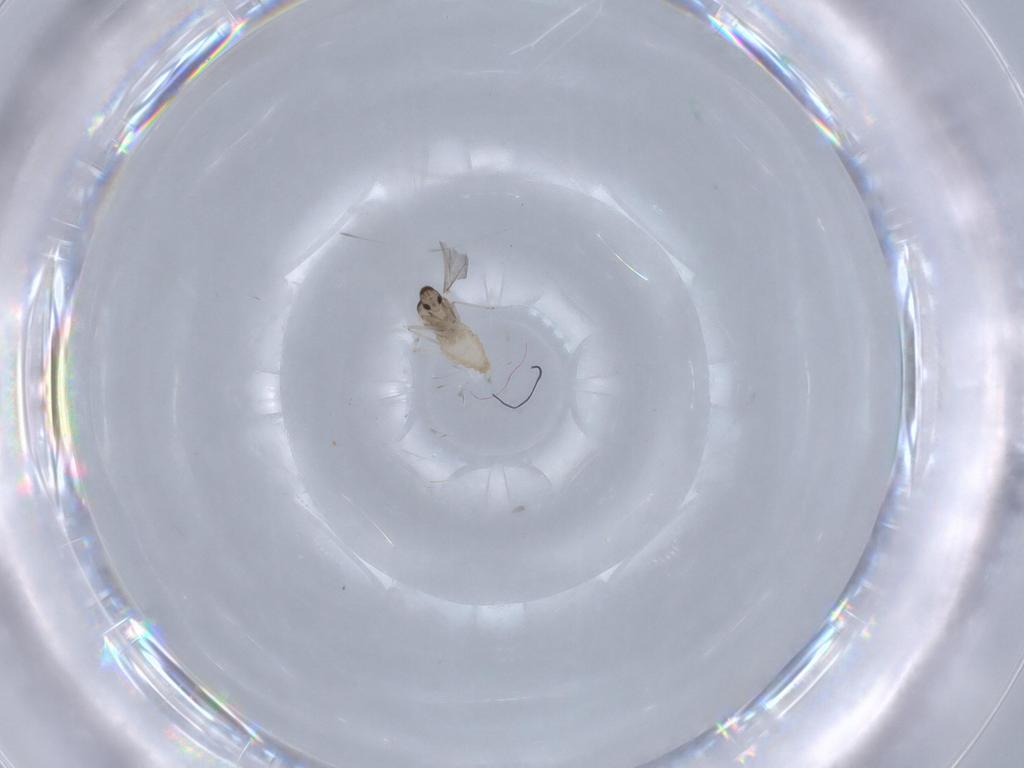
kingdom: Animalia
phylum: Arthropoda
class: Insecta
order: Diptera
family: Cecidomyiidae
